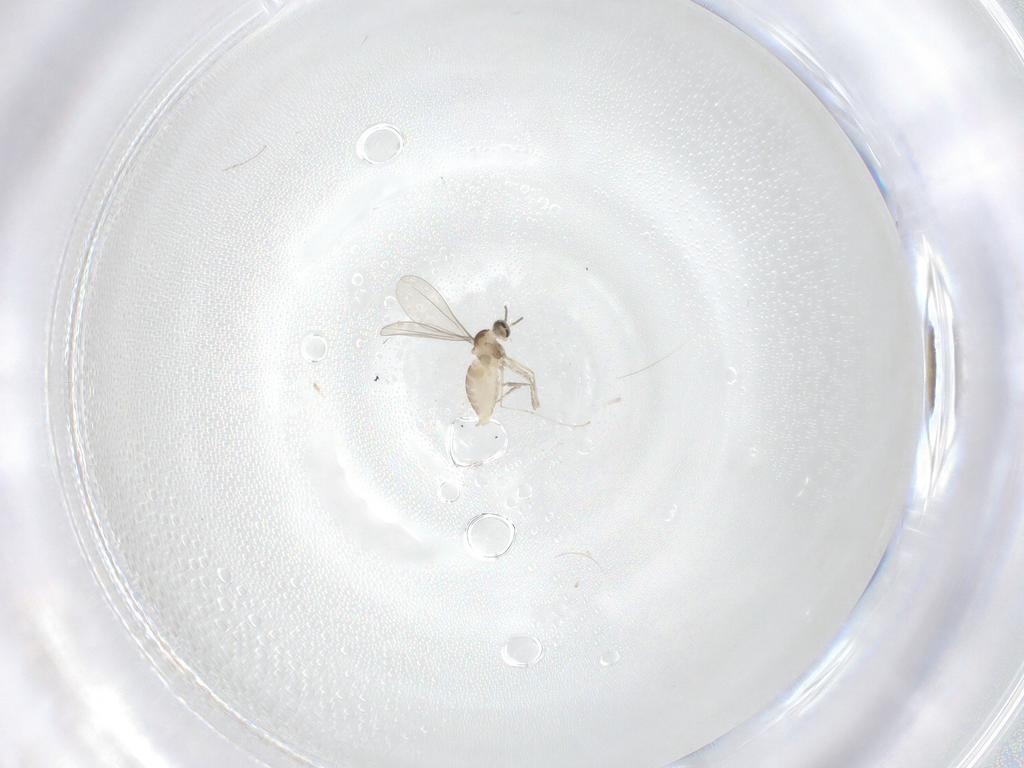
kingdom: Animalia
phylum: Arthropoda
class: Insecta
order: Diptera
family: Cecidomyiidae
